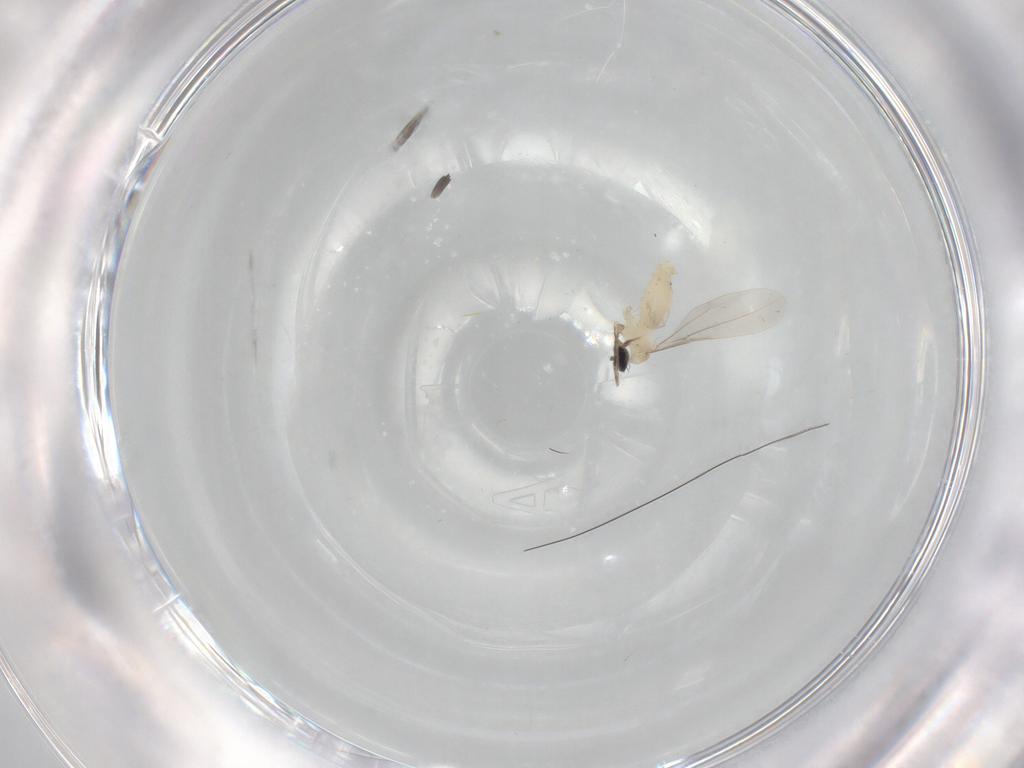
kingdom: Animalia
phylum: Arthropoda
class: Insecta
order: Diptera
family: Cecidomyiidae
